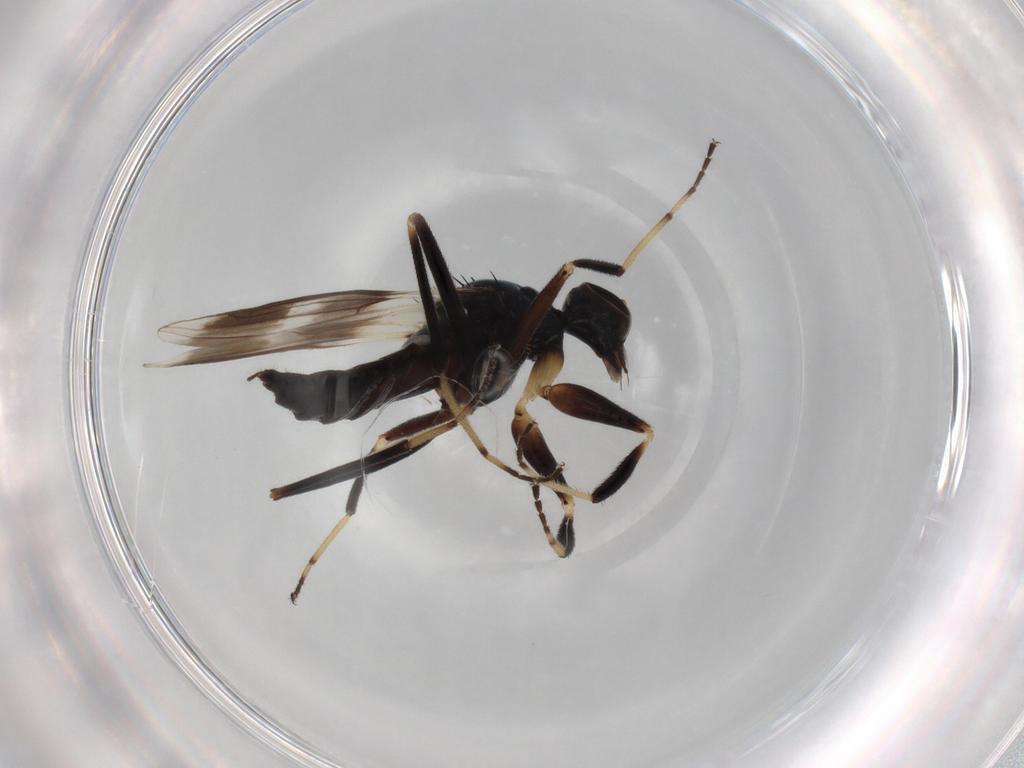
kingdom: Animalia
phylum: Arthropoda
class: Insecta
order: Diptera
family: Hybotidae
